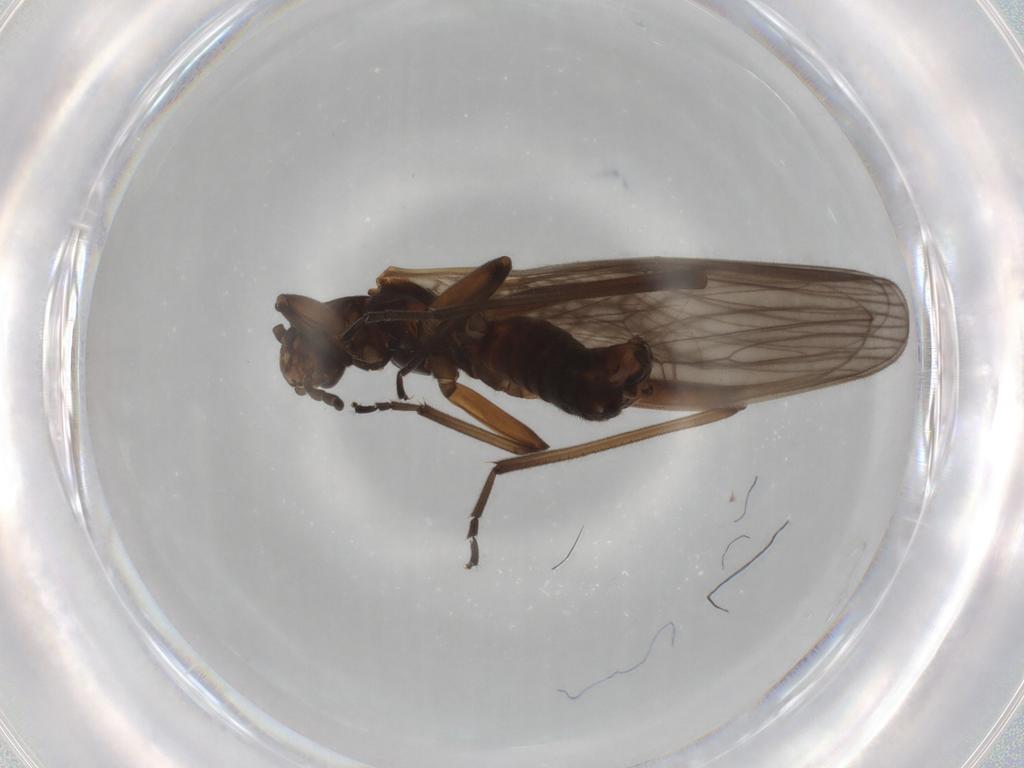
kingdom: Animalia
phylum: Arthropoda
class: Insecta
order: Plecoptera
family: Notonemouridae
